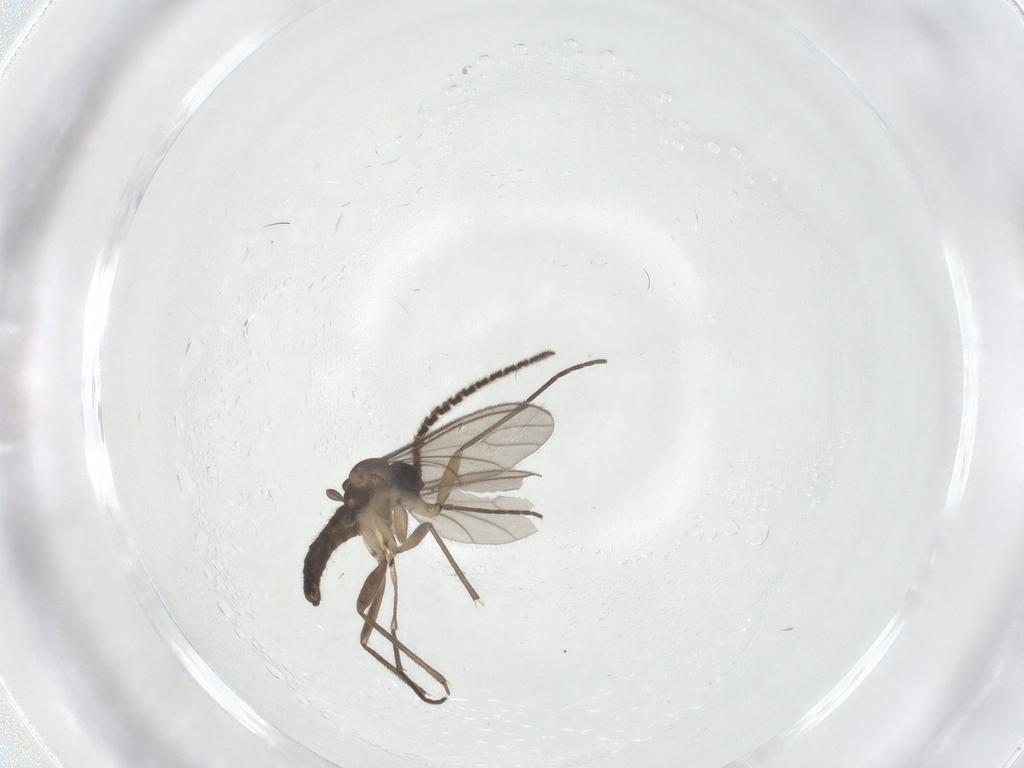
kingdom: Animalia
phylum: Arthropoda
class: Insecta
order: Diptera
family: Sciaridae
